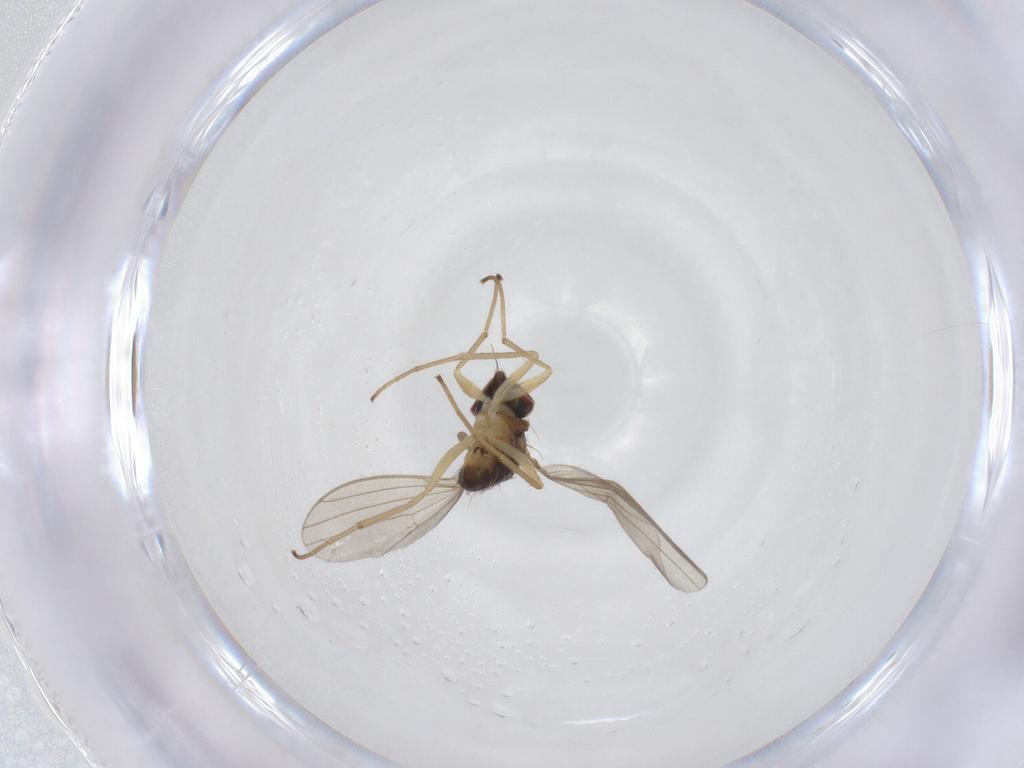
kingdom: Animalia
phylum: Arthropoda
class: Insecta
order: Diptera
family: Dolichopodidae
